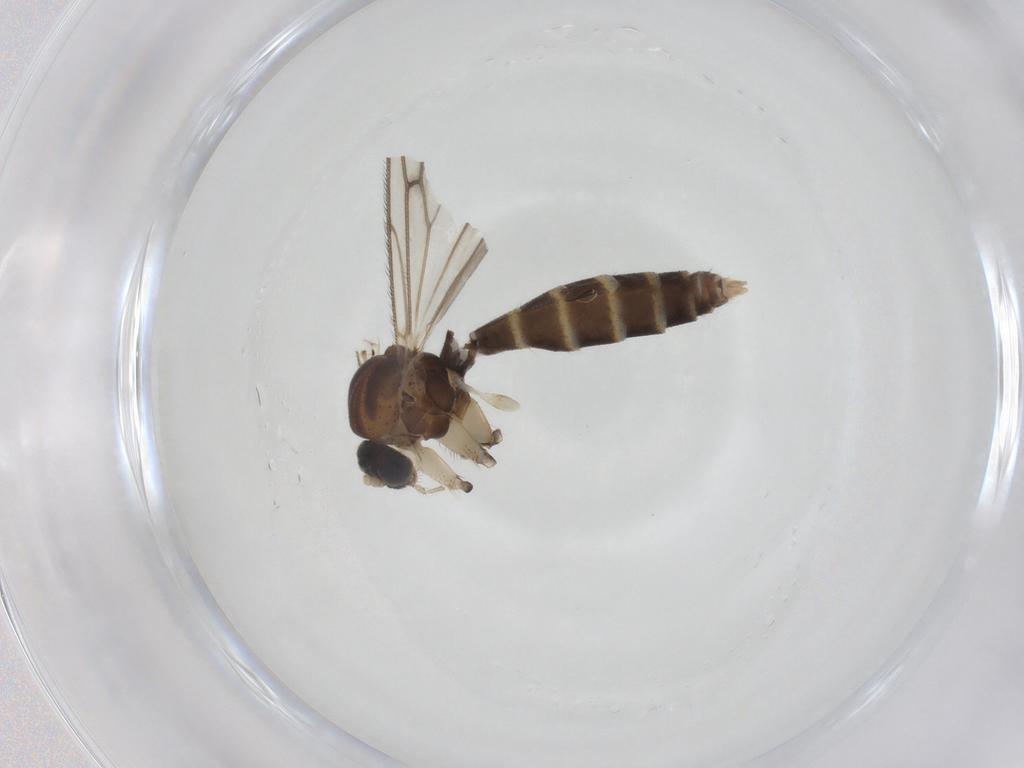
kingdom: Animalia
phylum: Arthropoda
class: Insecta
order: Diptera
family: Mycetophilidae
